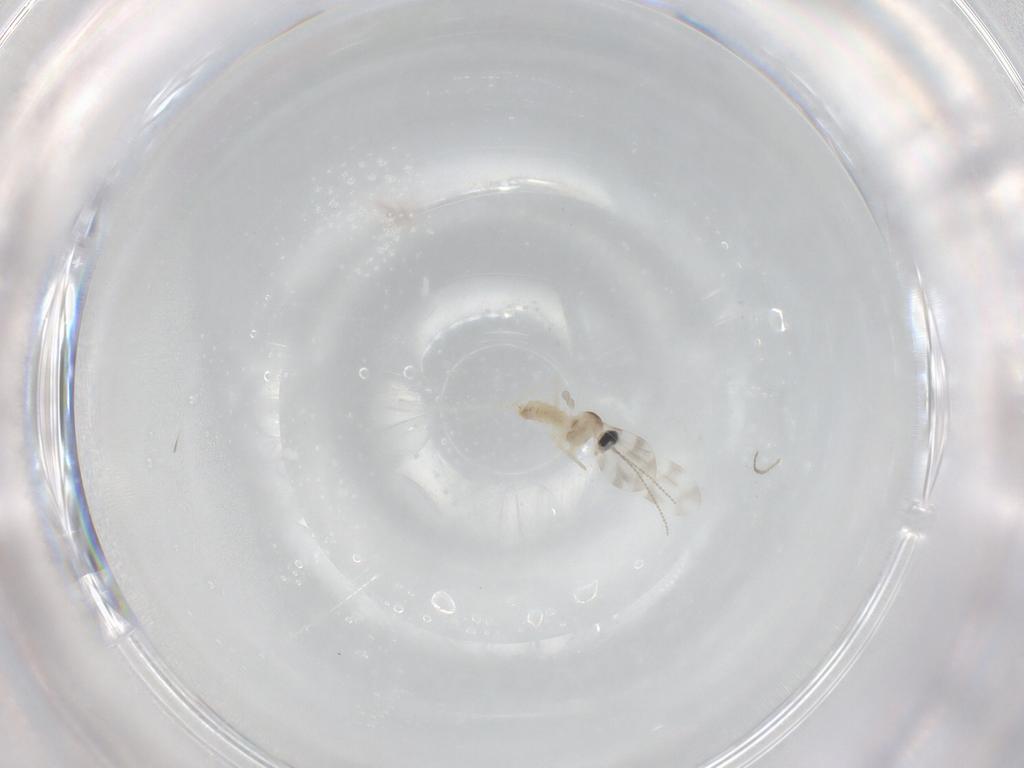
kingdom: Animalia
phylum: Arthropoda
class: Insecta
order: Diptera
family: Cecidomyiidae
